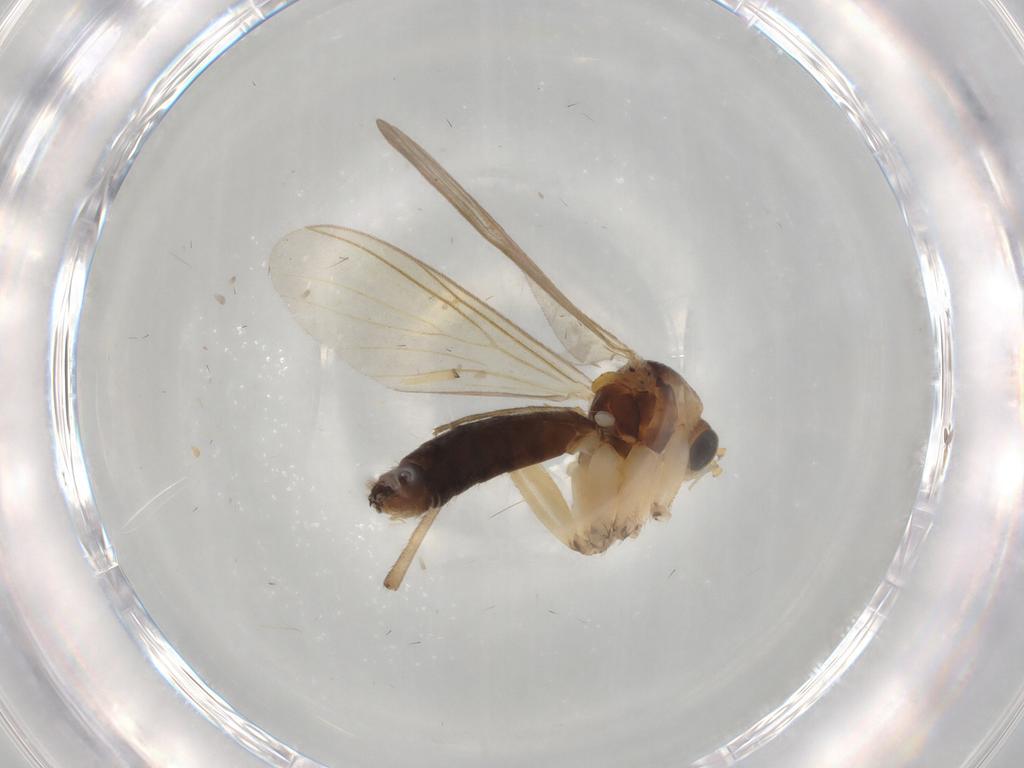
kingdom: Animalia
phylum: Arthropoda
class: Insecta
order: Diptera
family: Mycetophilidae
